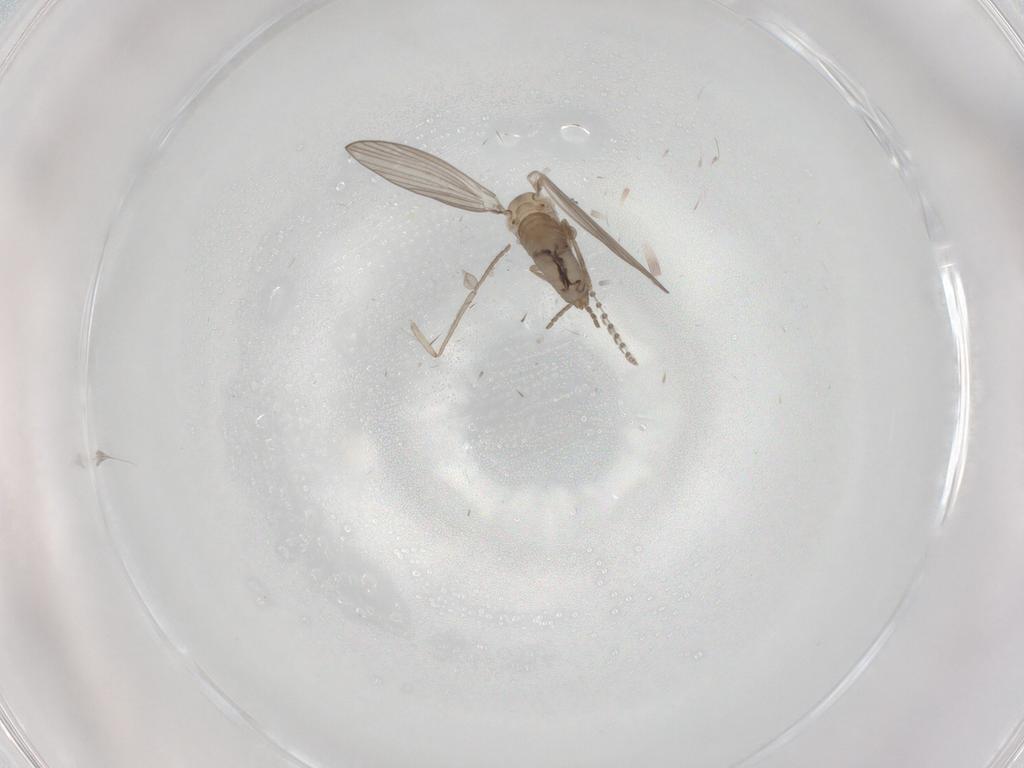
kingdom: Animalia
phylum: Arthropoda
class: Insecta
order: Diptera
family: Psychodidae
